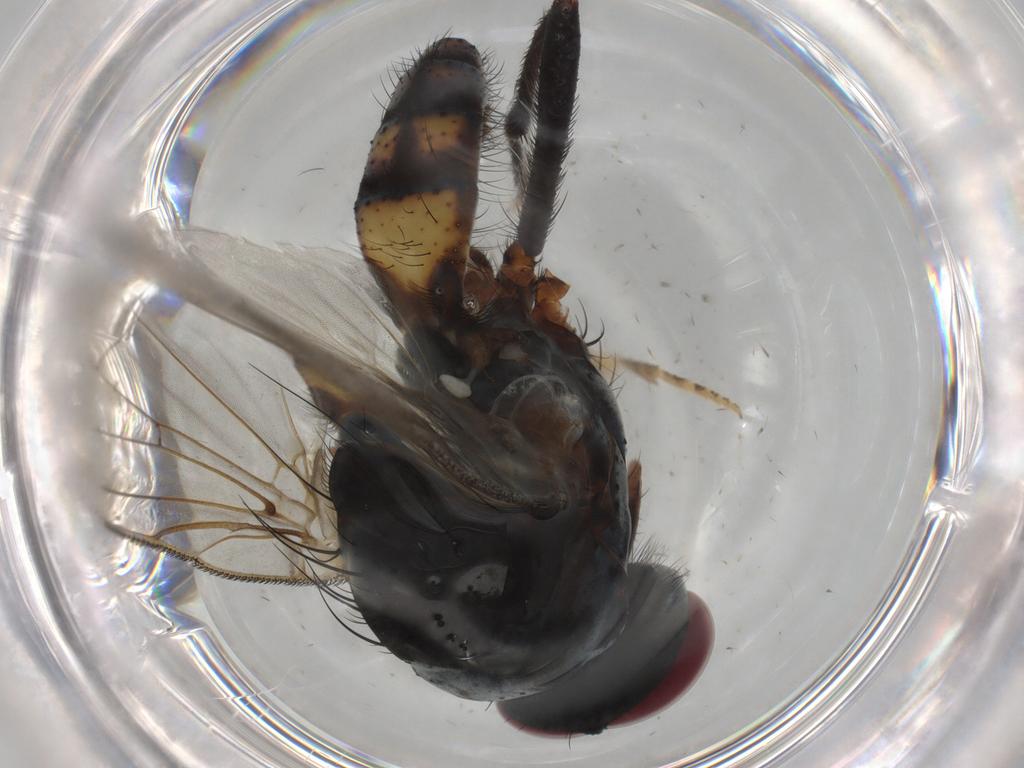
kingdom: Animalia
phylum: Arthropoda
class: Insecta
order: Diptera
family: Anthomyiidae
